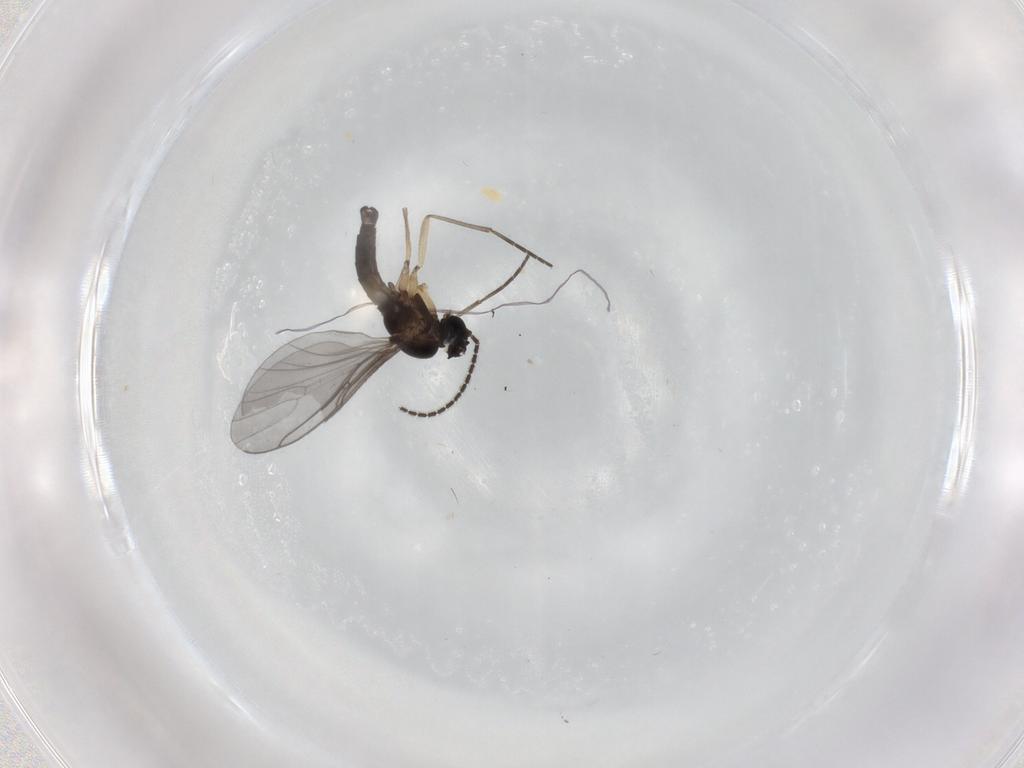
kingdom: Animalia
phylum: Arthropoda
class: Insecta
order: Diptera
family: Sciaridae
